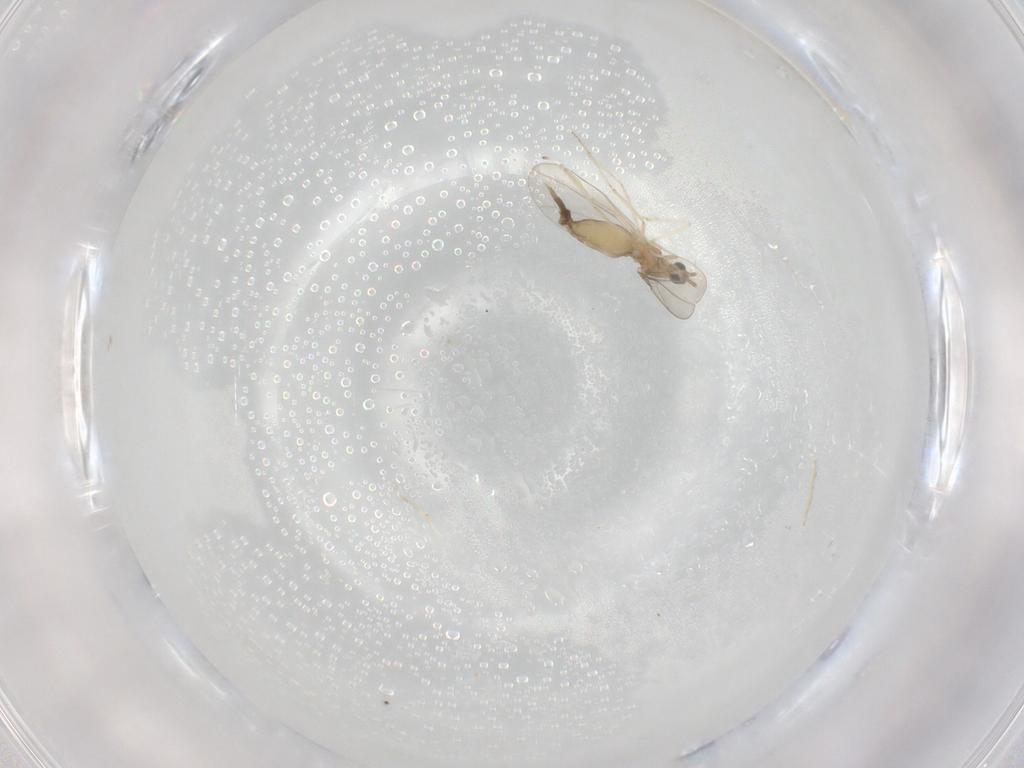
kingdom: Animalia
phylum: Arthropoda
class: Insecta
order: Diptera
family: Cecidomyiidae
